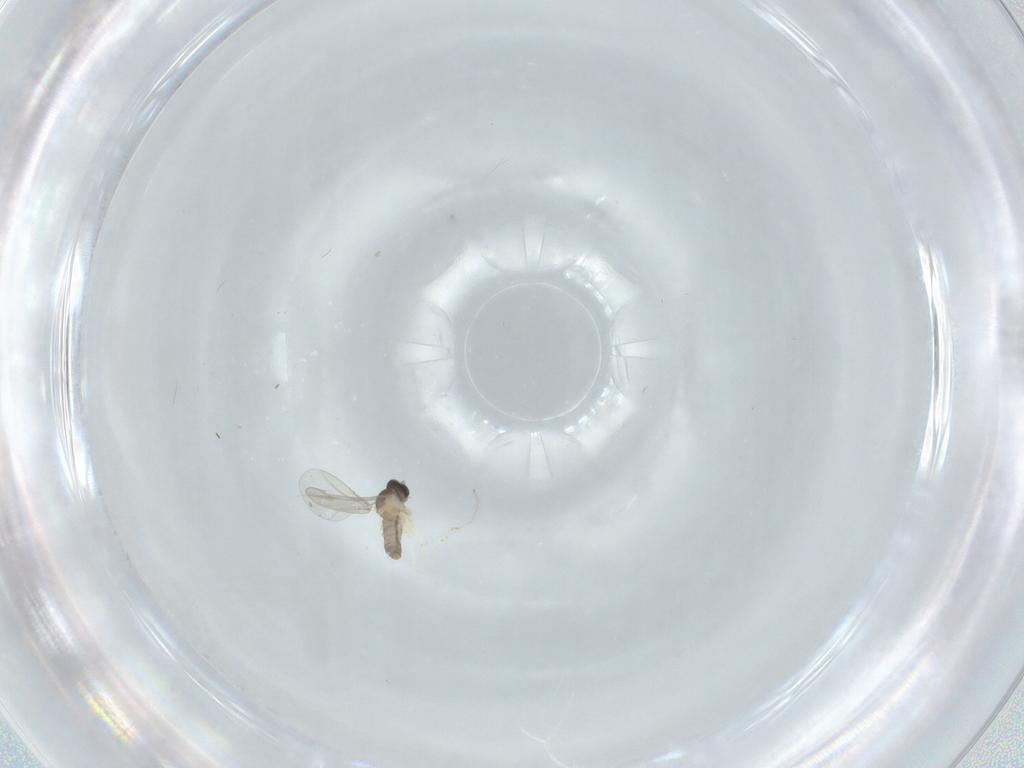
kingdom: Animalia
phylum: Arthropoda
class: Insecta
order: Diptera
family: Cecidomyiidae
